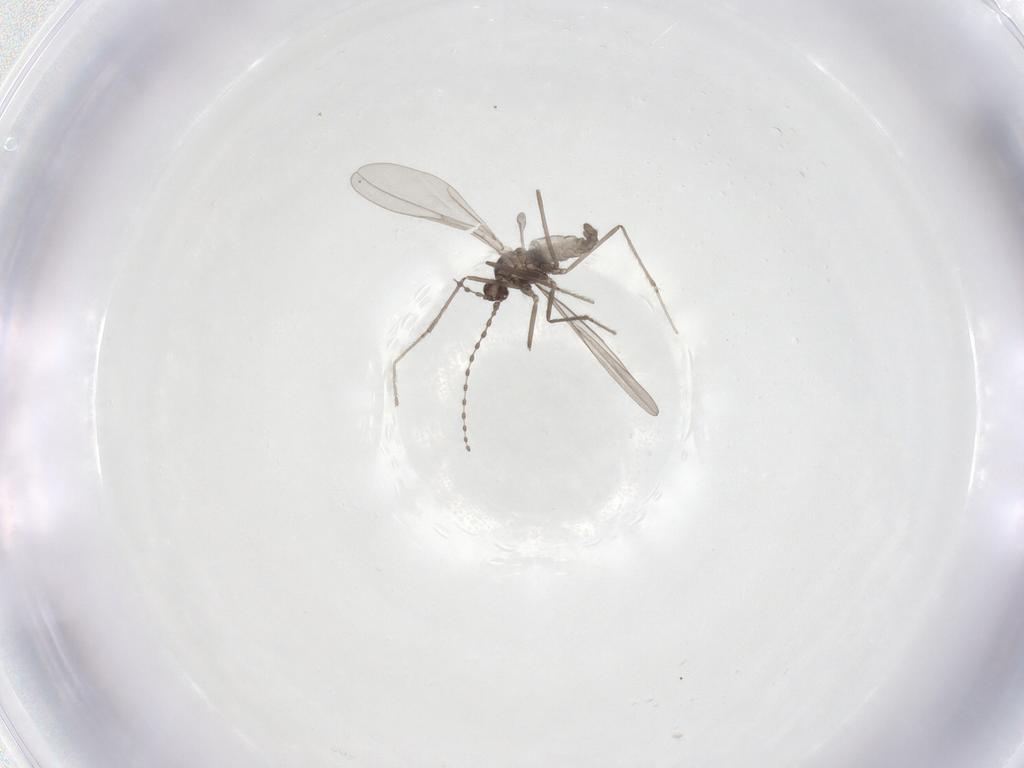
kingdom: Animalia
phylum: Arthropoda
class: Insecta
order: Diptera
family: Cecidomyiidae
